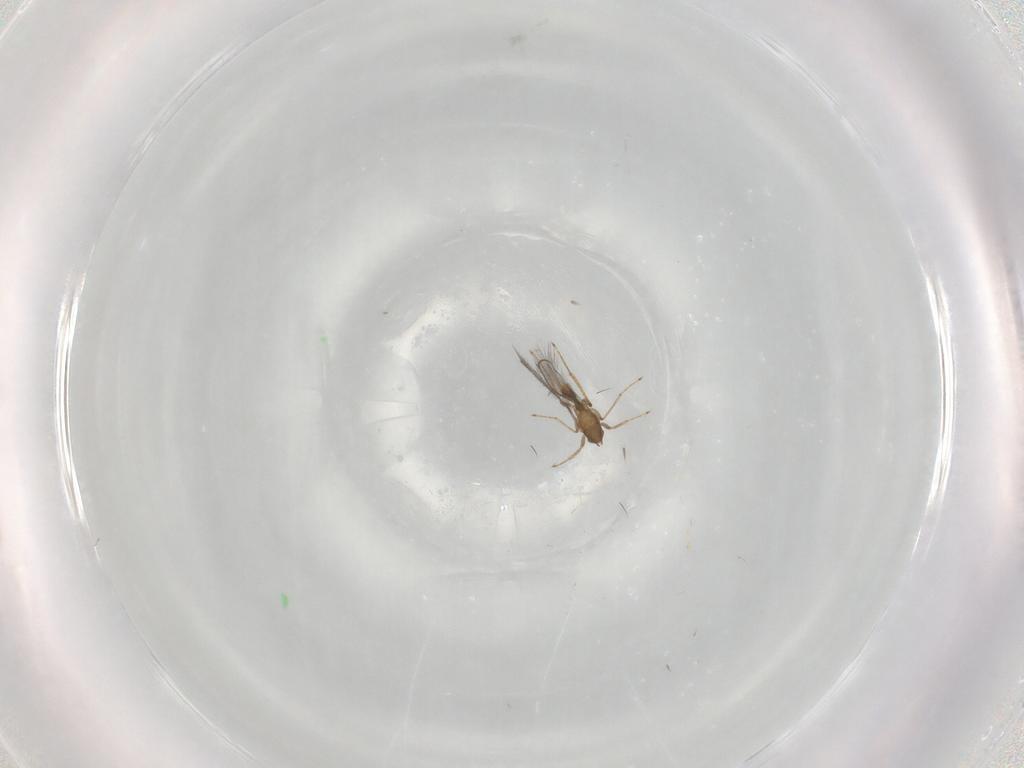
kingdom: Animalia
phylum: Arthropoda
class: Insecta
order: Hymenoptera
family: Mymaridae
